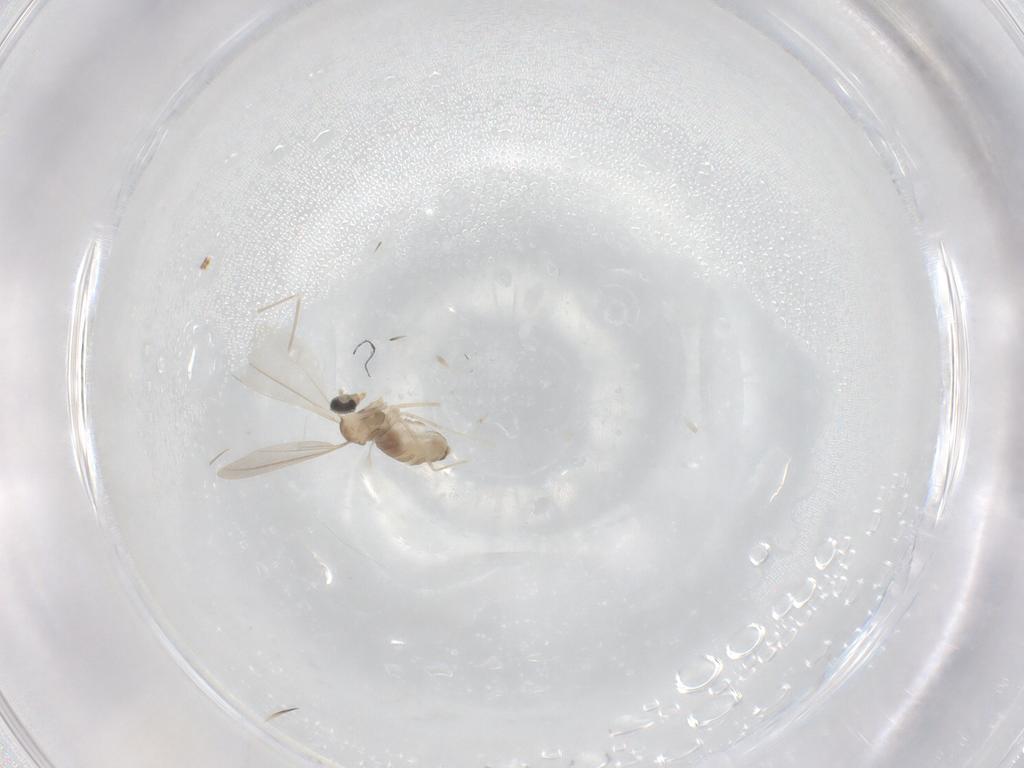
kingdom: Animalia
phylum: Arthropoda
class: Insecta
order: Diptera
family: Cecidomyiidae
